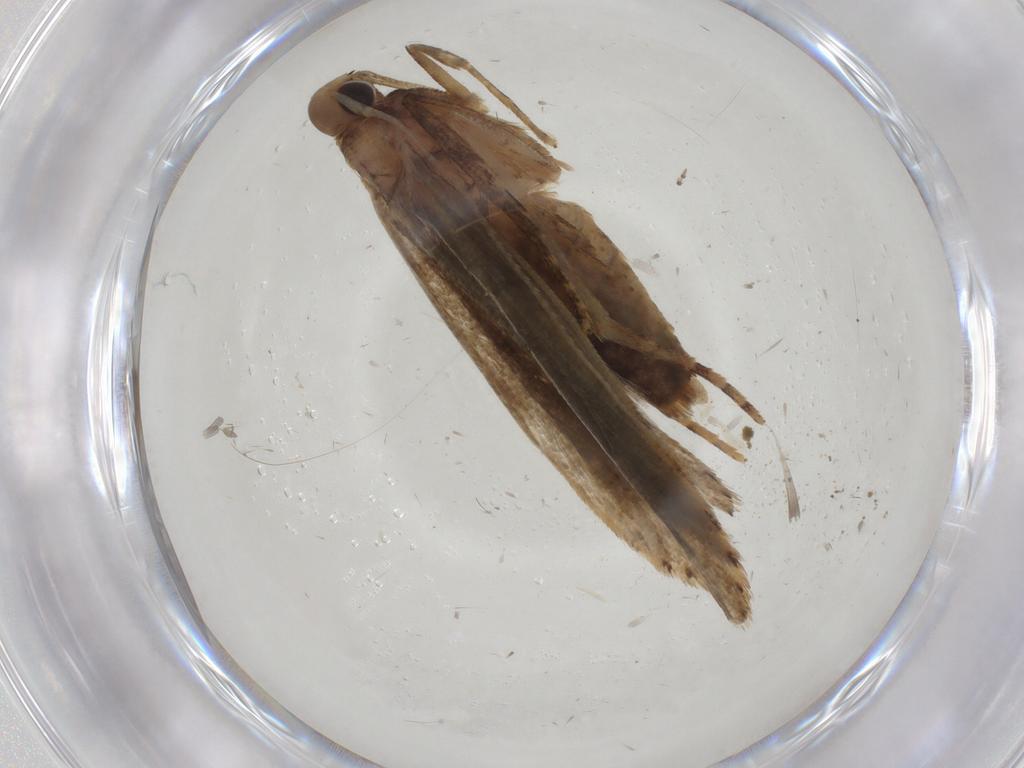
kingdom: Animalia
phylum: Arthropoda
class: Insecta
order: Lepidoptera
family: Gelechiidae
